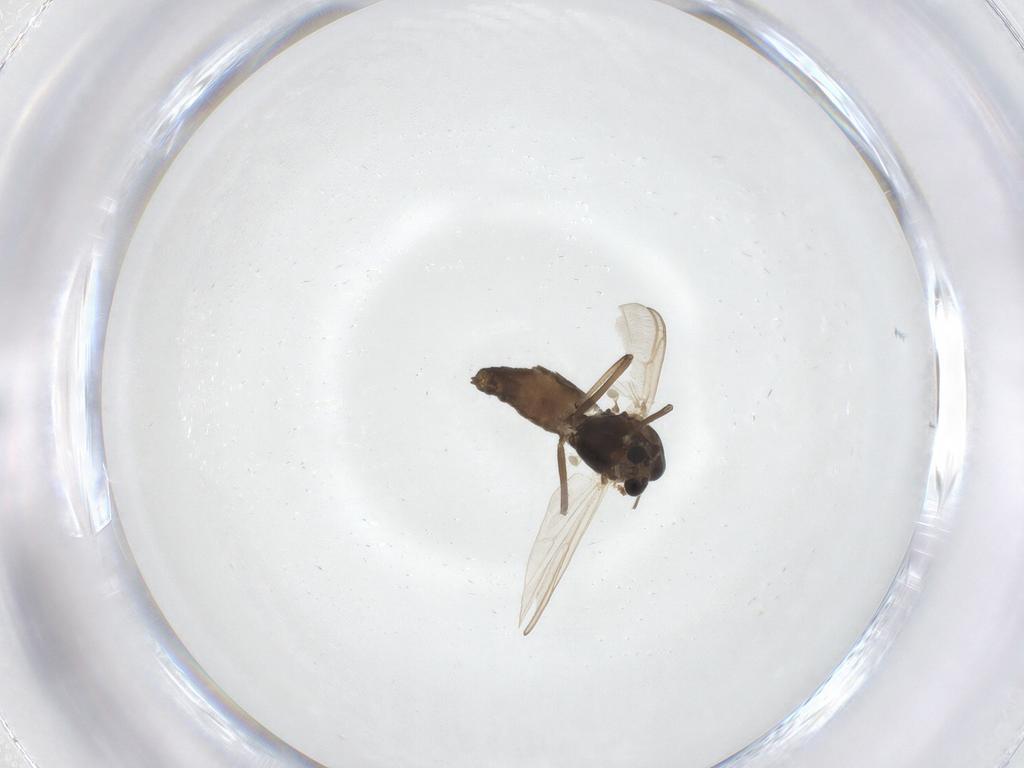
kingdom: Animalia
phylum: Arthropoda
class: Insecta
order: Diptera
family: Chironomidae
